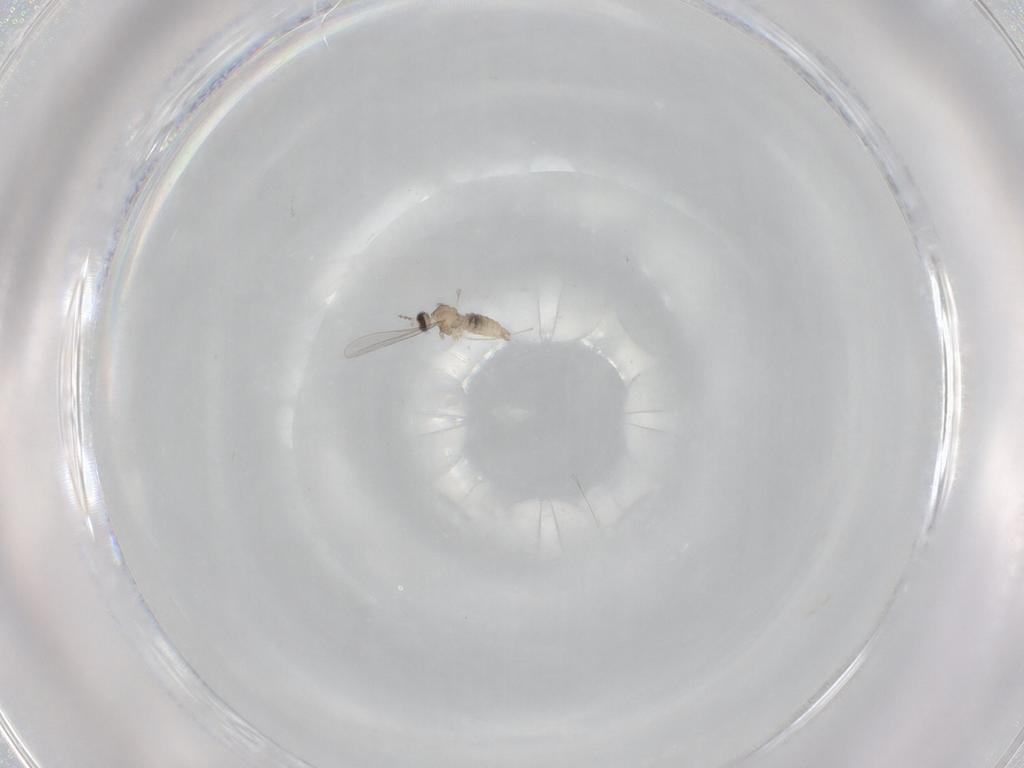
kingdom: Animalia
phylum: Arthropoda
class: Insecta
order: Diptera
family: Cecidomyiidae
